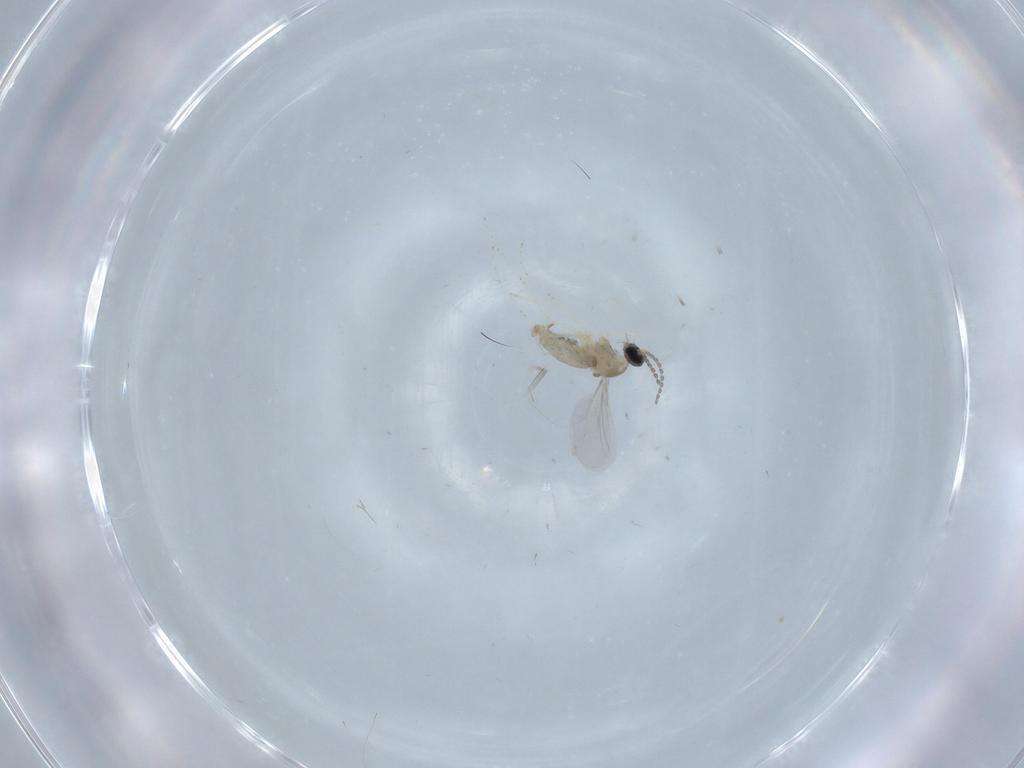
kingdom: Animalia
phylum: Arthropoda
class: Insecta
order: Diptera
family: Cecidomyiidae
